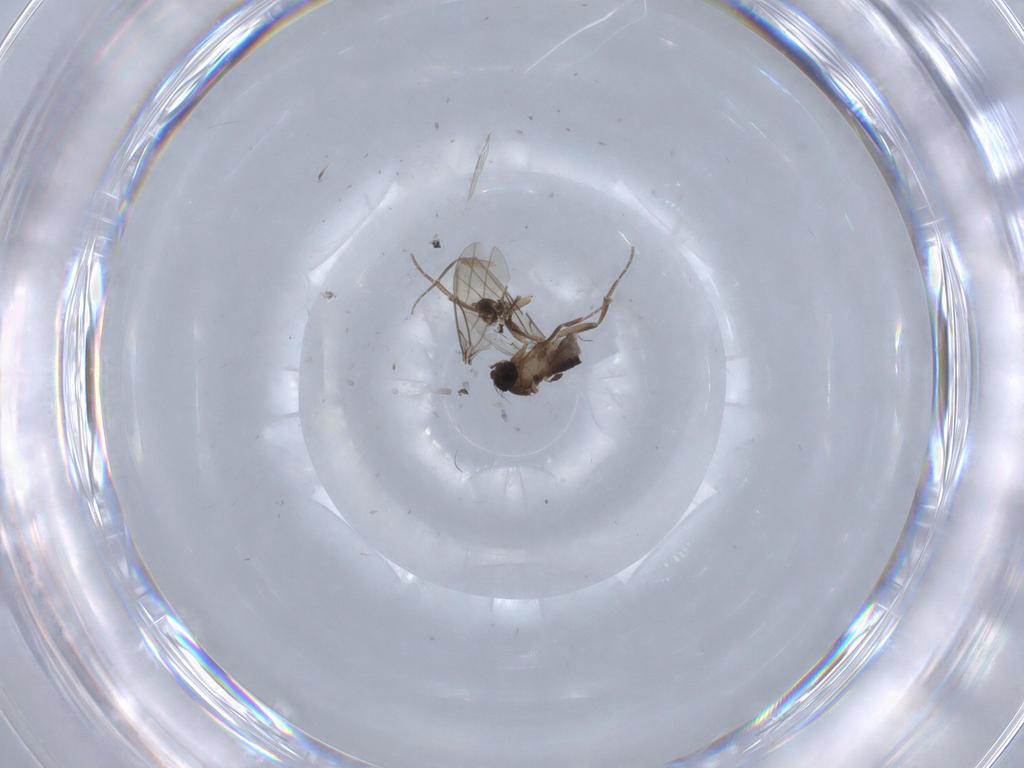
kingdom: Animalia
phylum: Arthropoda
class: Insecta
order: Diptera
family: Phoridae
